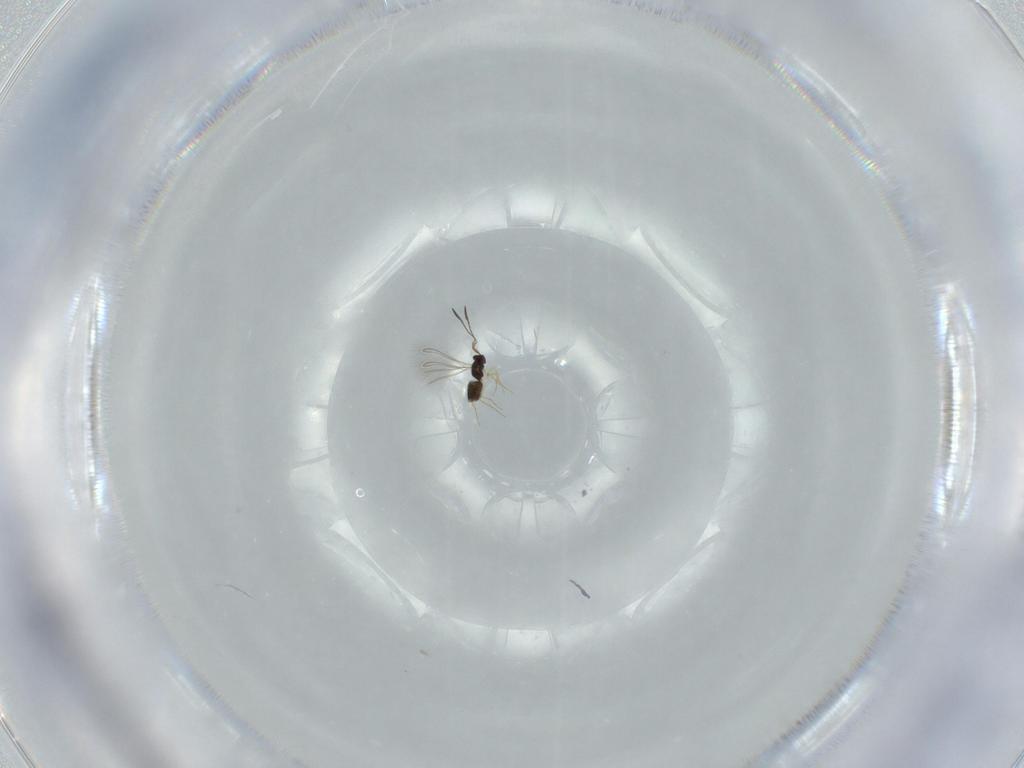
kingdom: Animalia
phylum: Arthropoda
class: Insecta
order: Hymenoptera
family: Mymaridae
